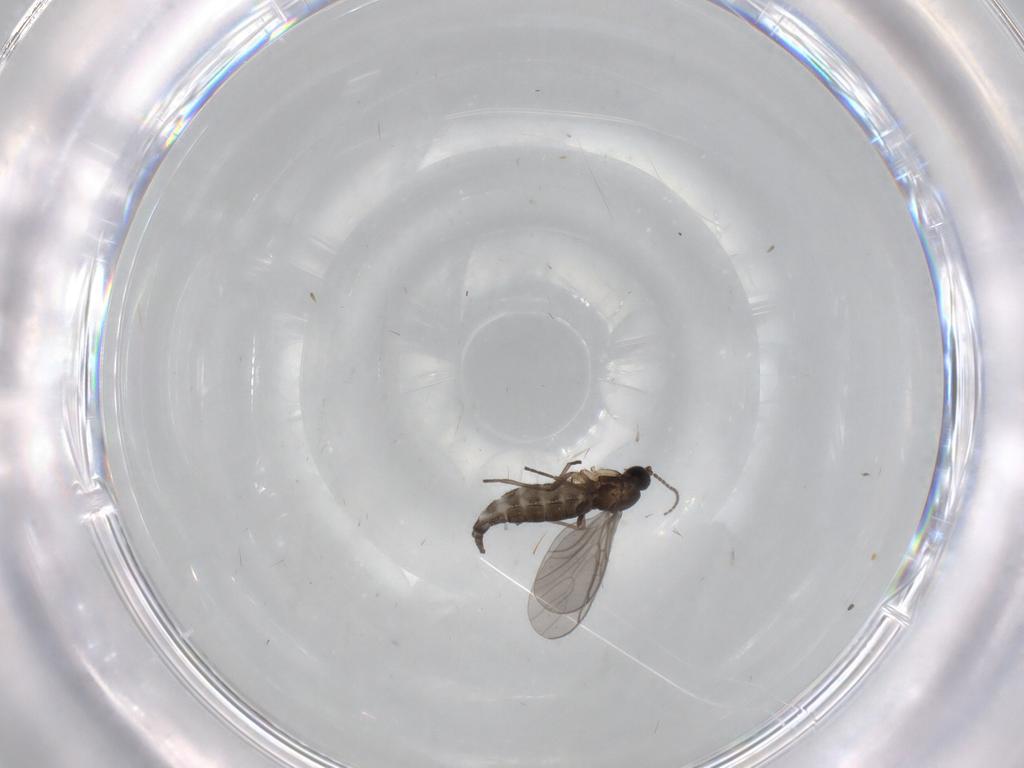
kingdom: Animalia
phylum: Arthropoda
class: Insecta
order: Diptera
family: Cecidomyiidae
